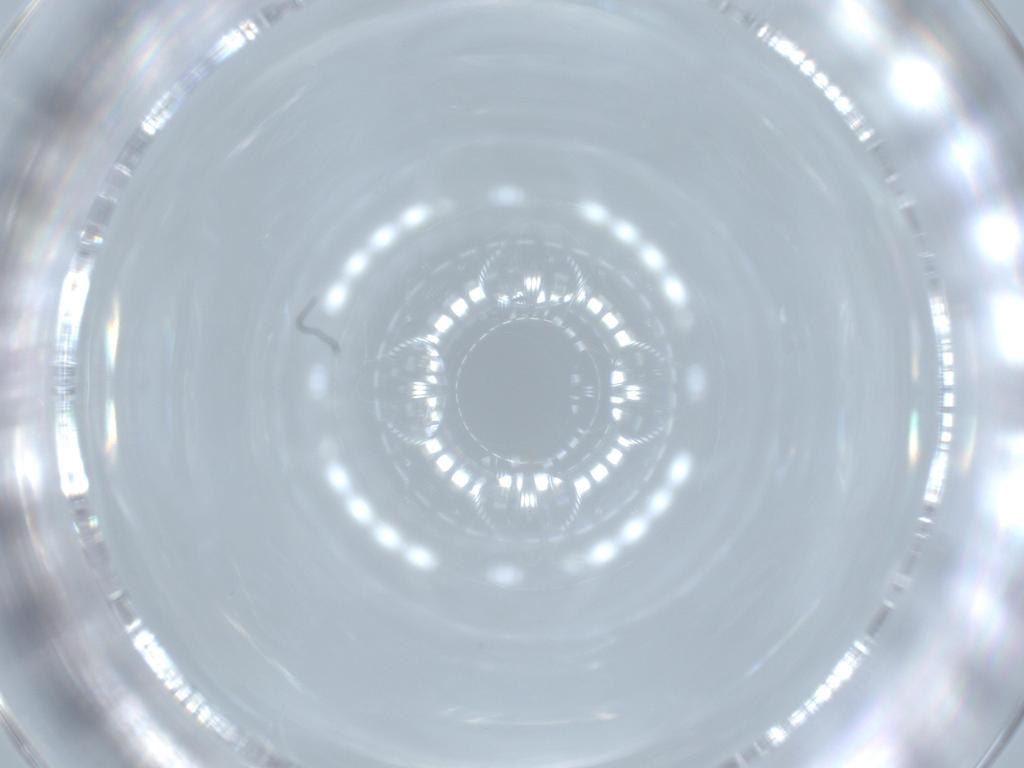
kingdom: Animalia
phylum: Arthropoda
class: Insecta
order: Diptera
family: Cecidomyiidae
